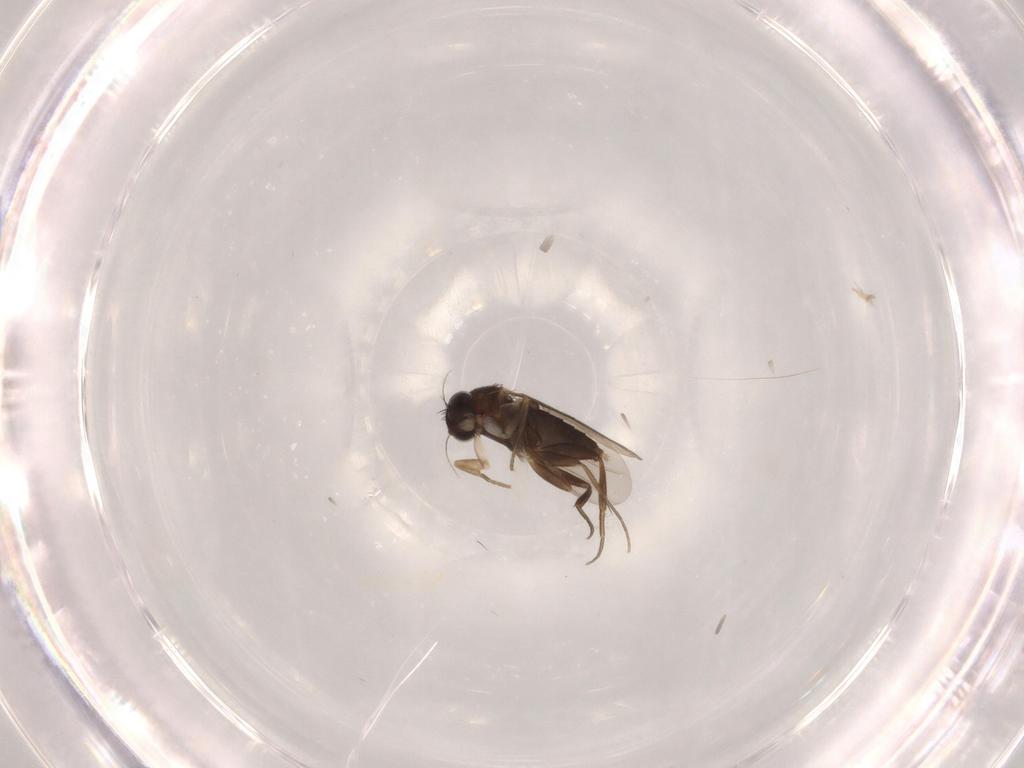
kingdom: Animalia
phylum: Arthropoda
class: Insecta
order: Diptera
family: Phoridae
